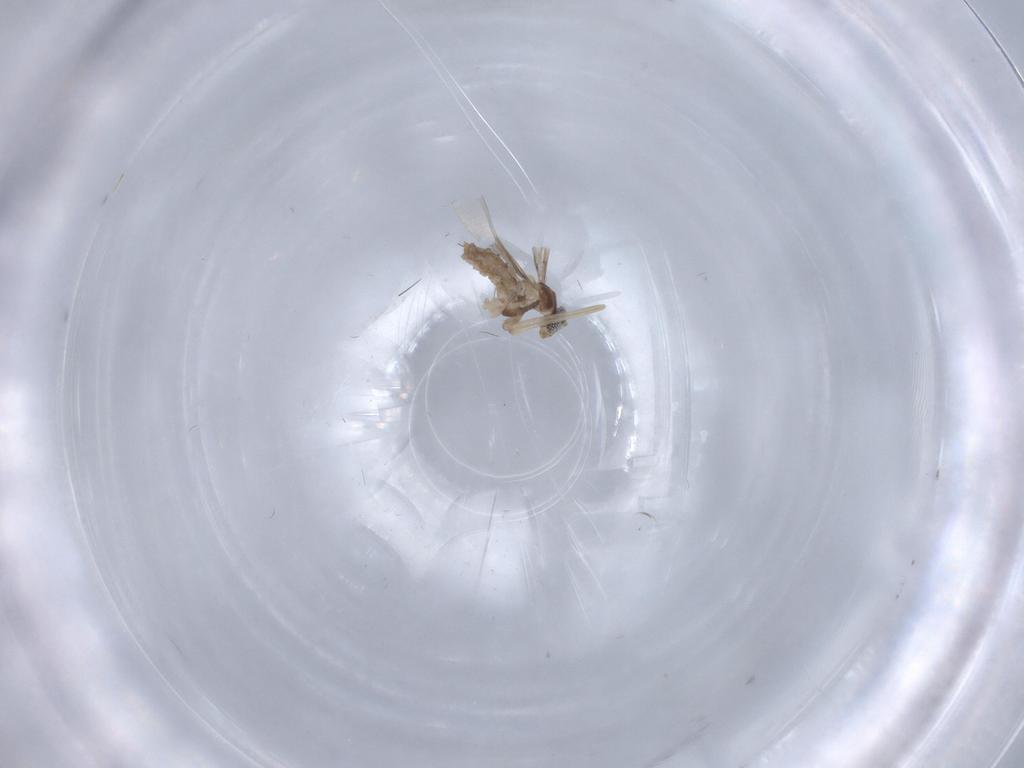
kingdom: Animalia
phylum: Arthropoda
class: Insecta
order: Diptera
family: Cecidomyiidae
